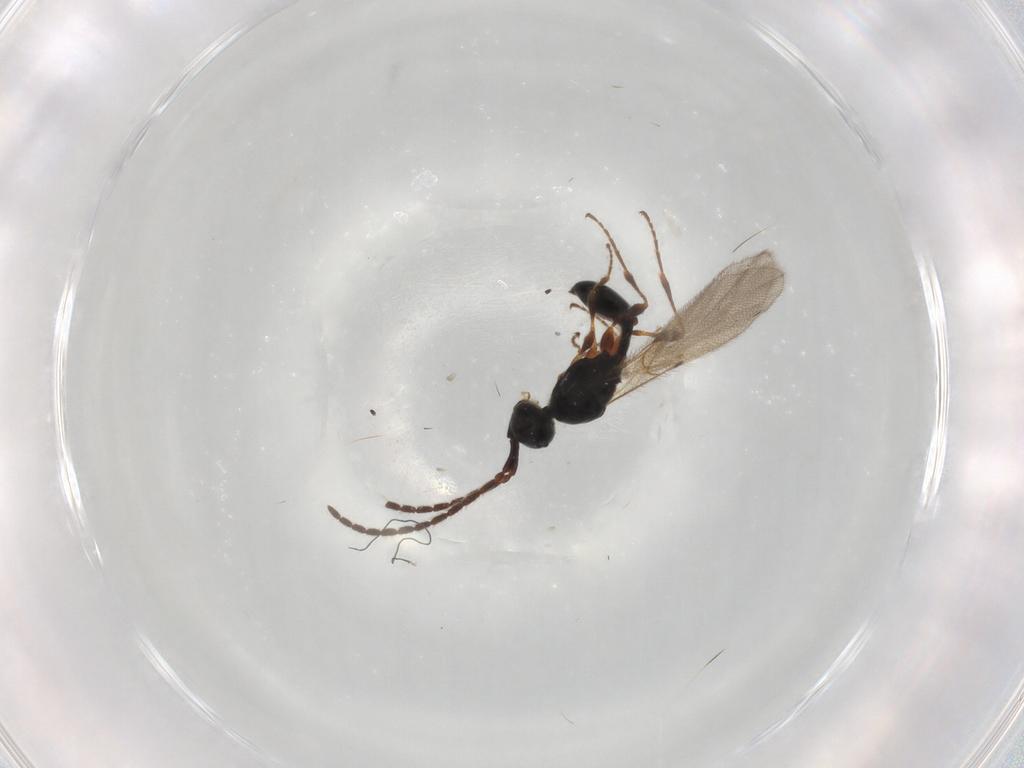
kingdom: Animalia
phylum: Arthropoda
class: Insecta
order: Hymenoptera
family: Diapriidae
